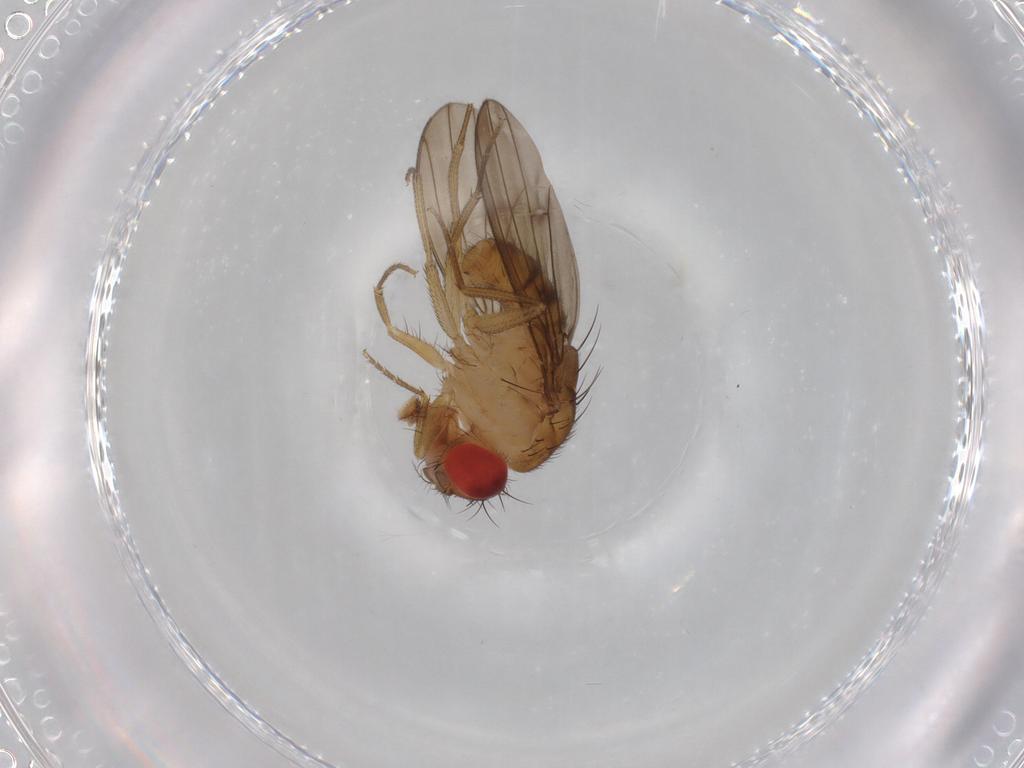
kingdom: Animalia
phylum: Arthropoda
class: Insecta
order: Diptera
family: Drosophilidae
